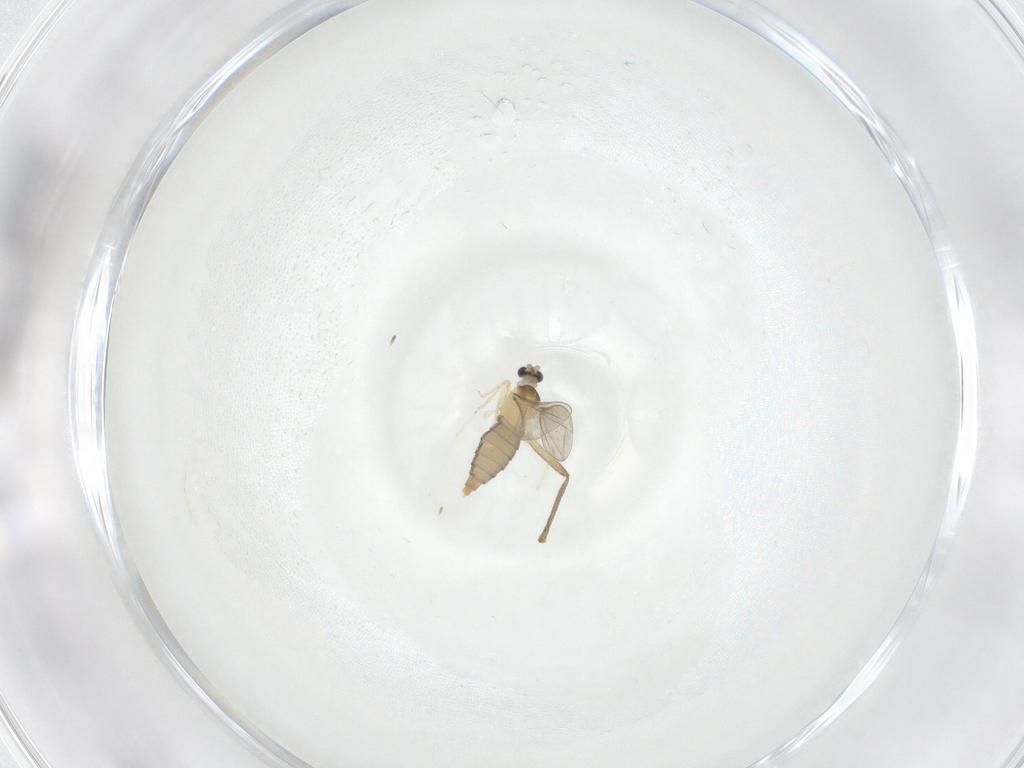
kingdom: Animalia
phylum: Arthropoda
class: Insecta
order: Diptera
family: Chironomidae
